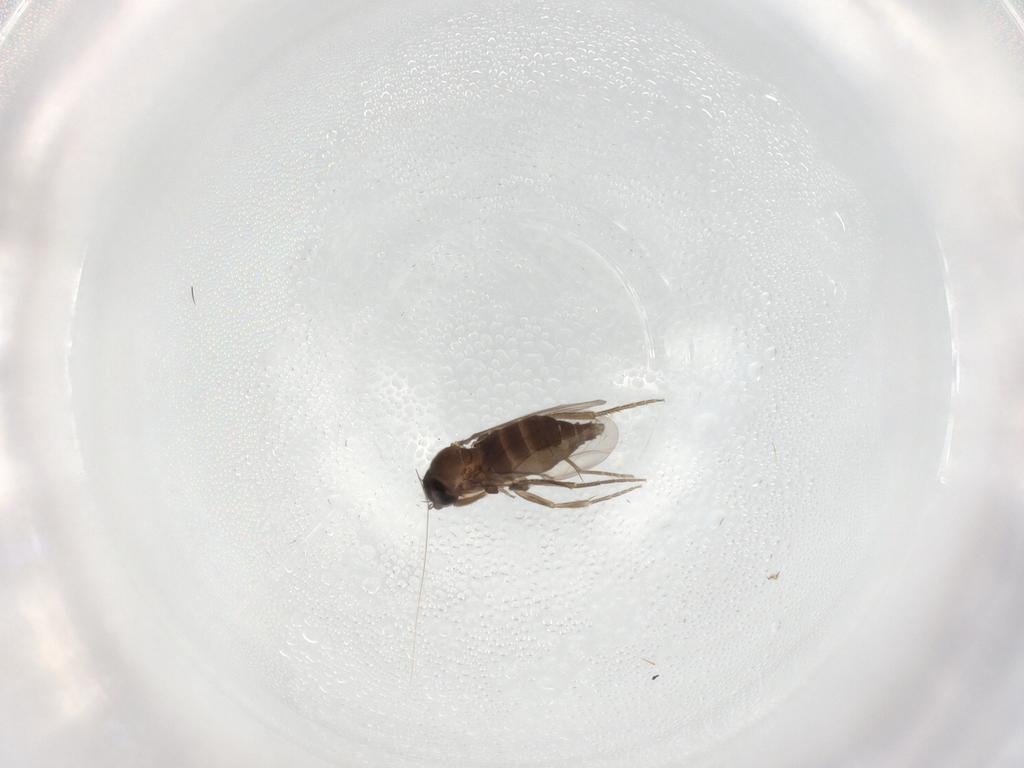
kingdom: Animalia
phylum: Arthropoda
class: Insecta
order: Diptera
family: Phoridae
